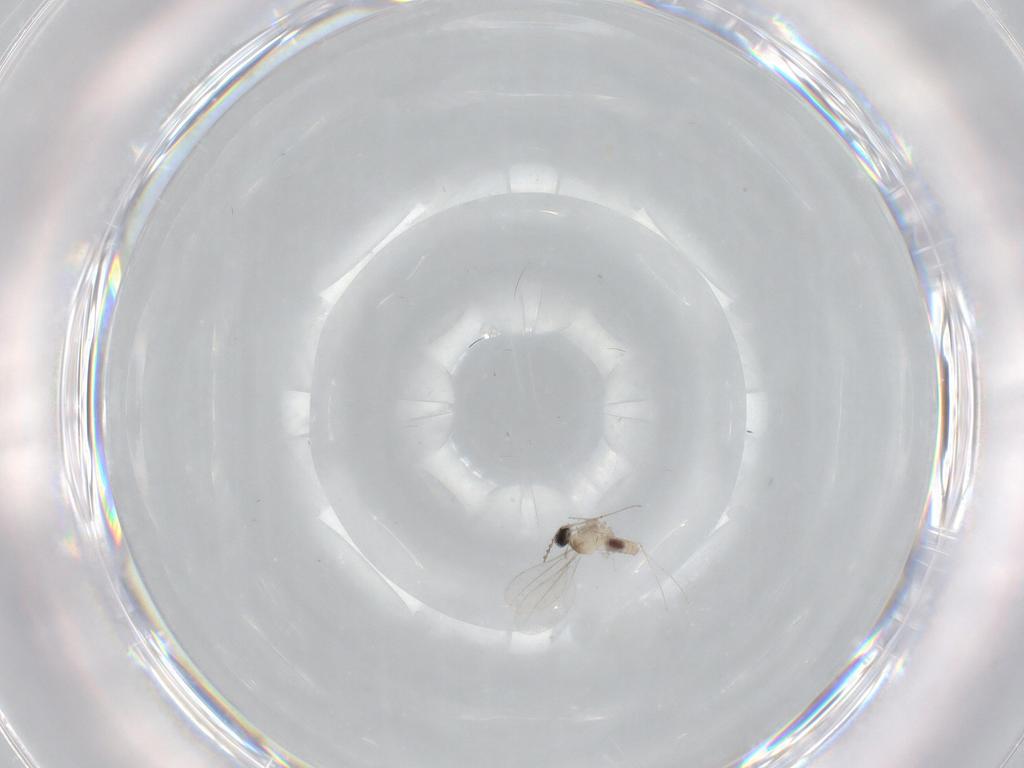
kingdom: Animalia
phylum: Arthropoda
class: Insecta
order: Diptera
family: Cecidomyiidae
